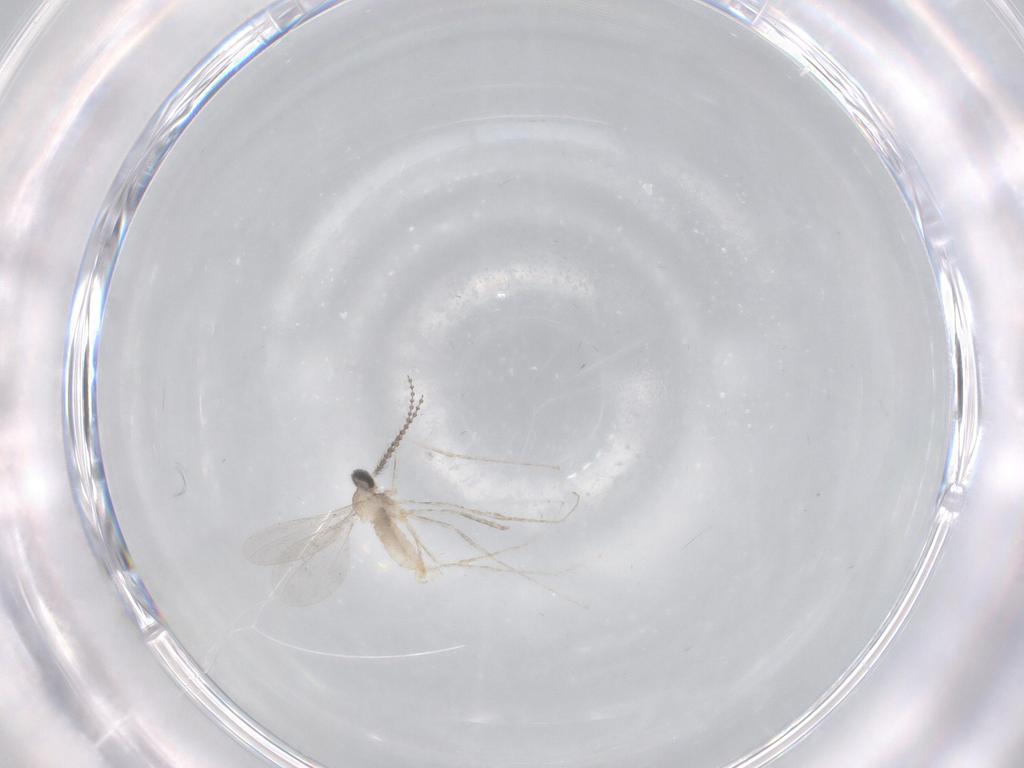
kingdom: Animalia
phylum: Arthropoda
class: Insecta
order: Diptera
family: Cecidomyiidae
